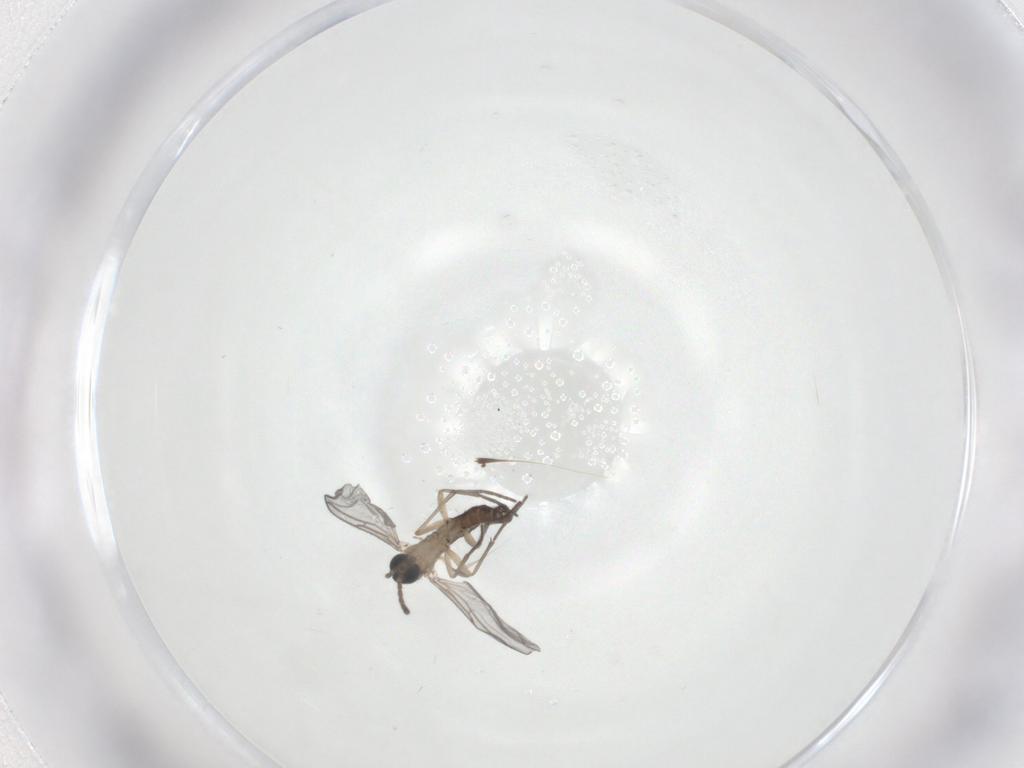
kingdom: Animalia
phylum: Arthropoda
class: Insecta
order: Diptera
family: Sciaridae
